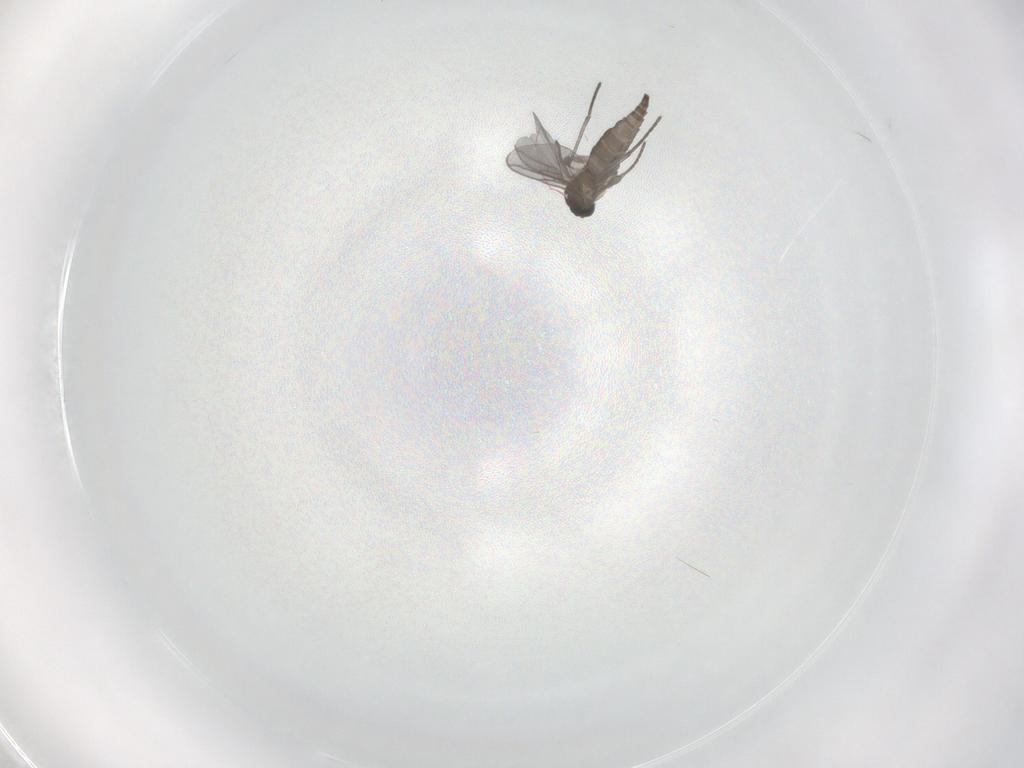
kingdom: Animalia
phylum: Arthropoda
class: Insecta
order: Diptera
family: Sciaridae
